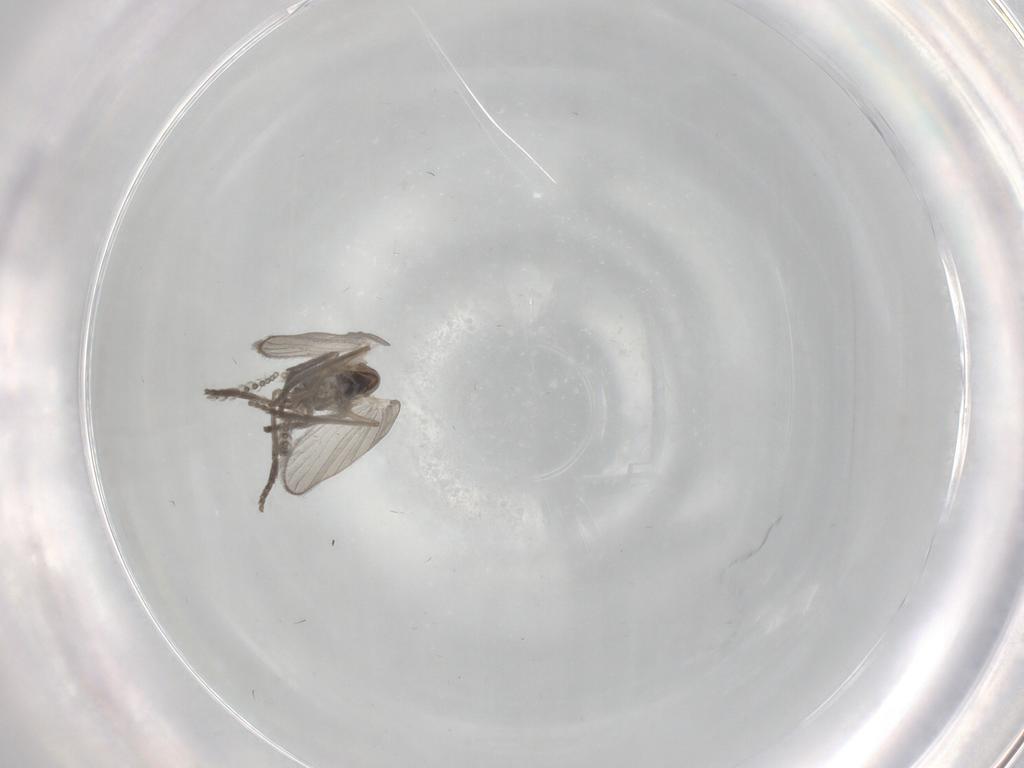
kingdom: Animalia
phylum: Arthropoda
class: Insecta
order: Diptera
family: Psychodidae
